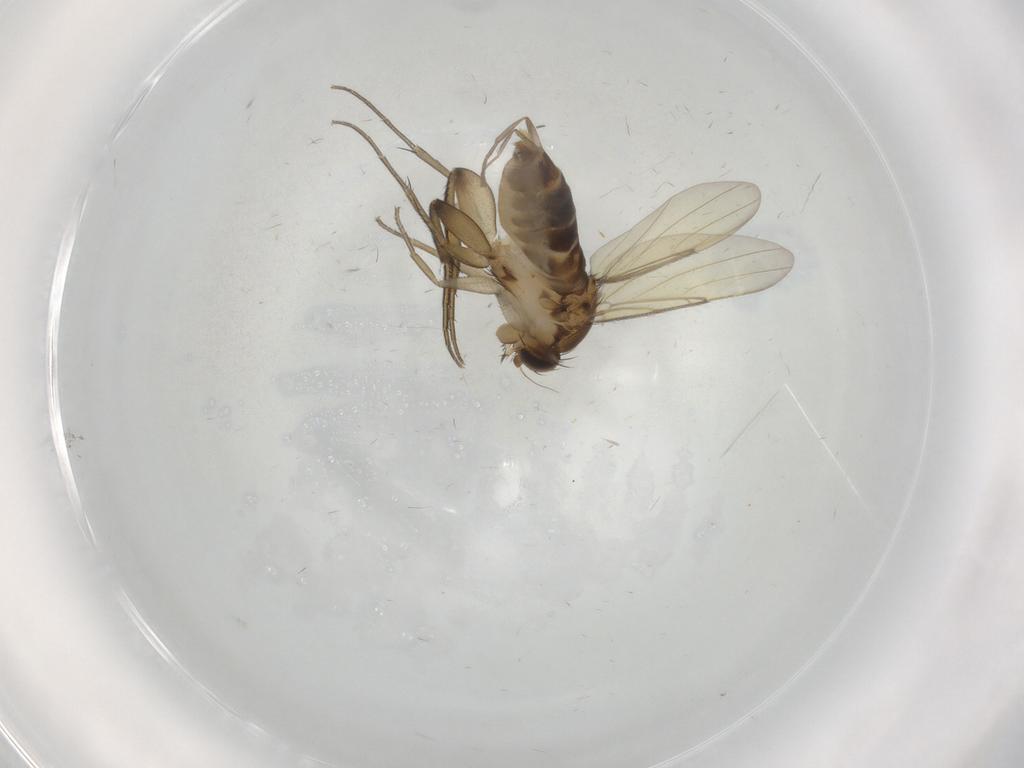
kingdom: Animalia
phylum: Arthropoda
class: Insecta
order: Diptera
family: Phoridae
